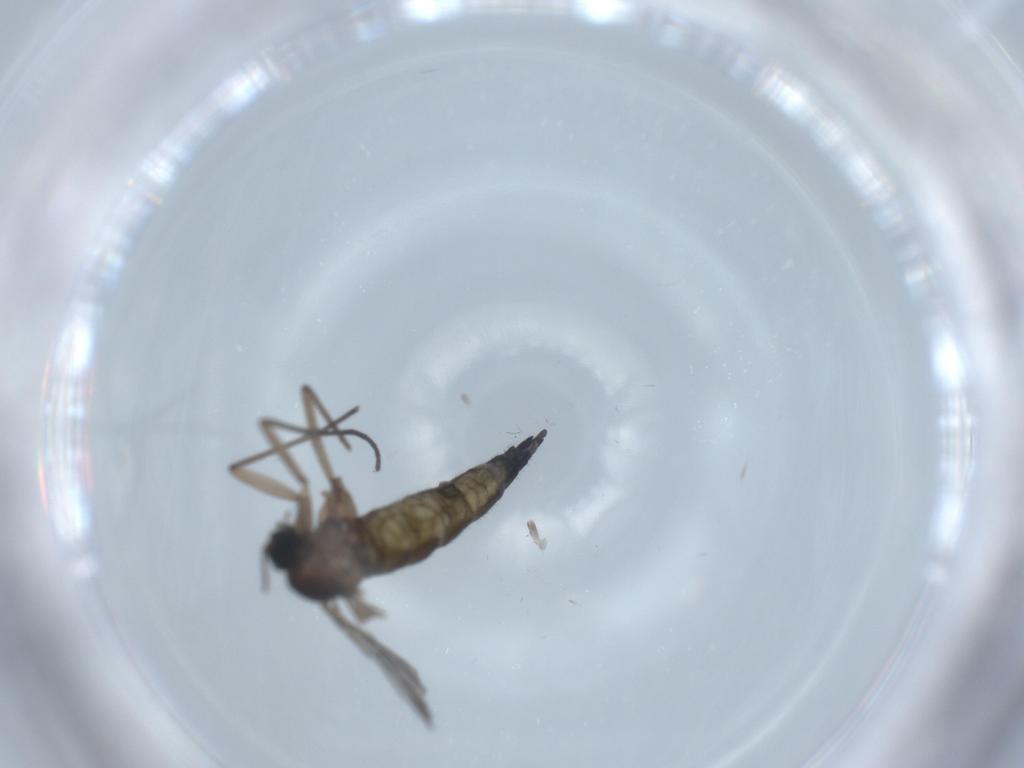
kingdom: Animalia
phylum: Arthropoda
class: Insecta
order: Diptera
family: Sciaridae
